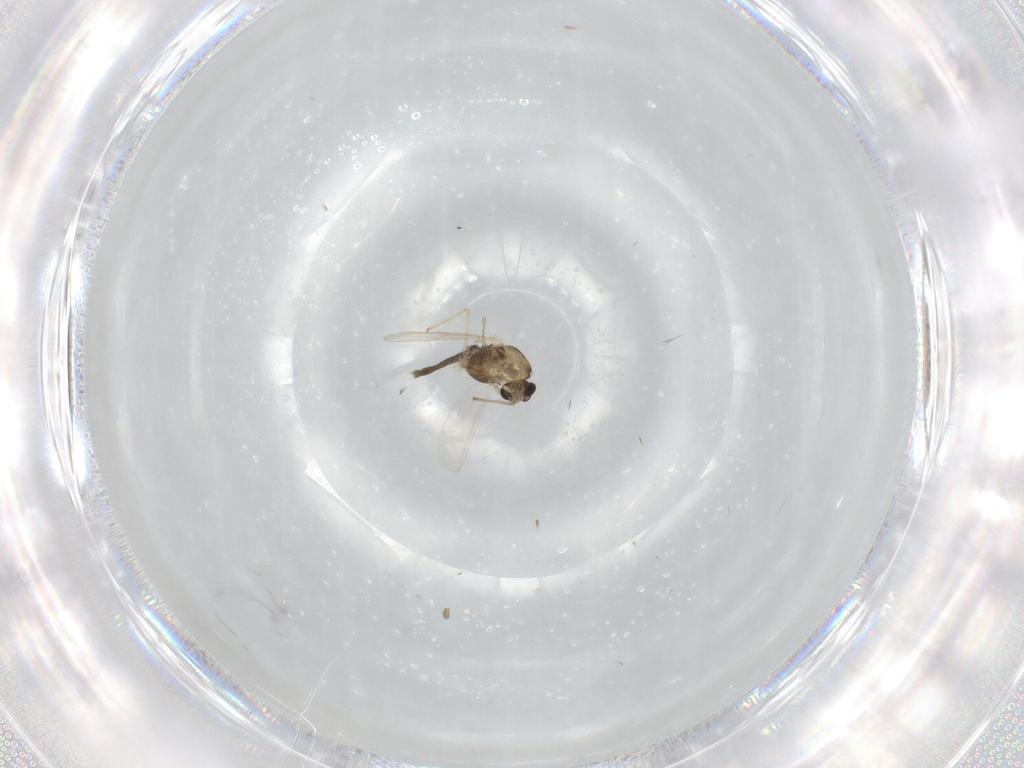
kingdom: Animalia
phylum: Arthropoda
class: Insecta
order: Diptera
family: Chironomidae
